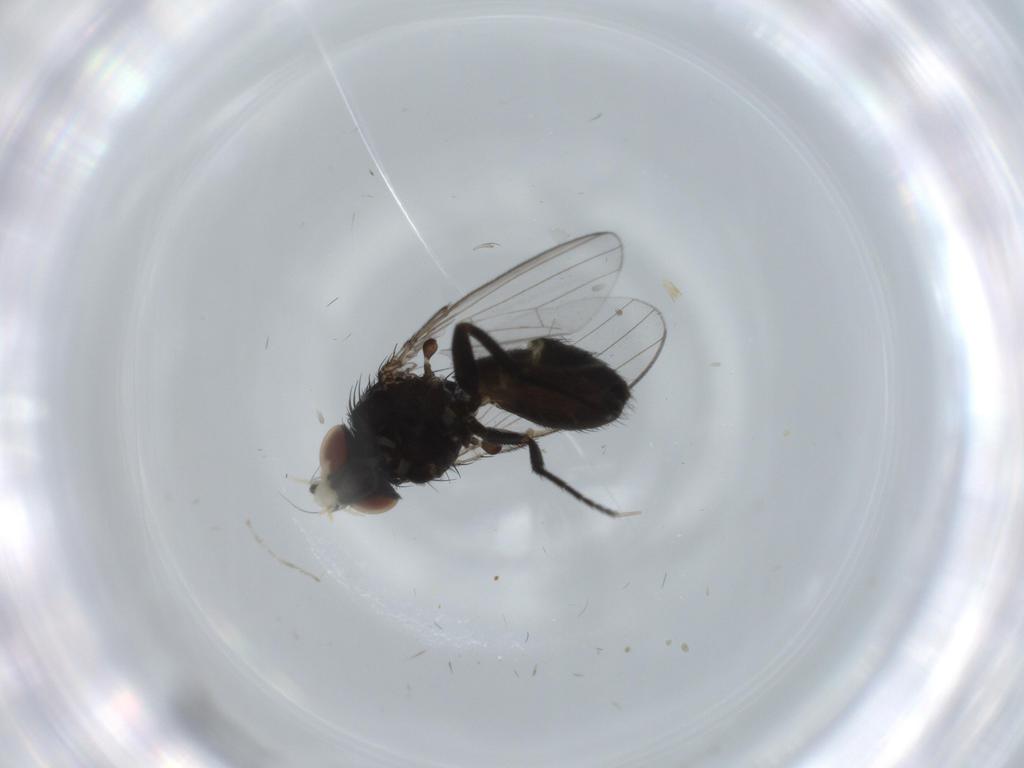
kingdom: Animalia
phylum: Arthropoda
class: Insecta
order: Diptera
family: Milichiidae
